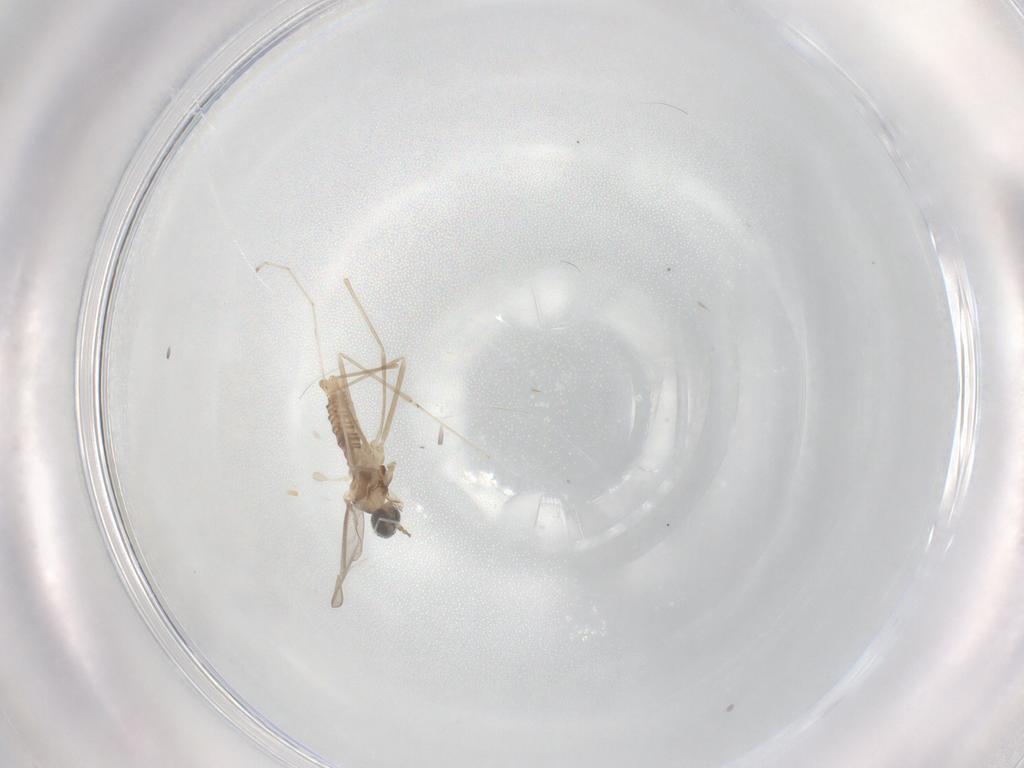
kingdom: Animalia
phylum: Arthropoda
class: Insecta
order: Diptera
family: Cecidomyiidae
